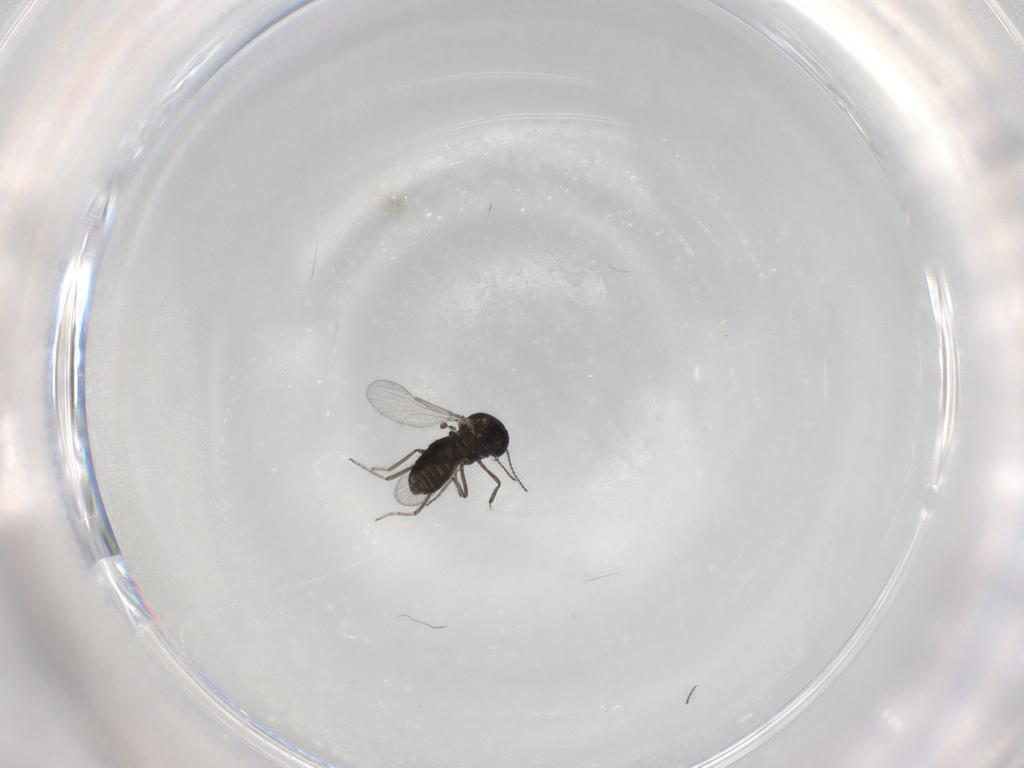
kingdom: Animalia
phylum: Arthropoda
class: Insecta
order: Diptera
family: Ceratopogonidae
